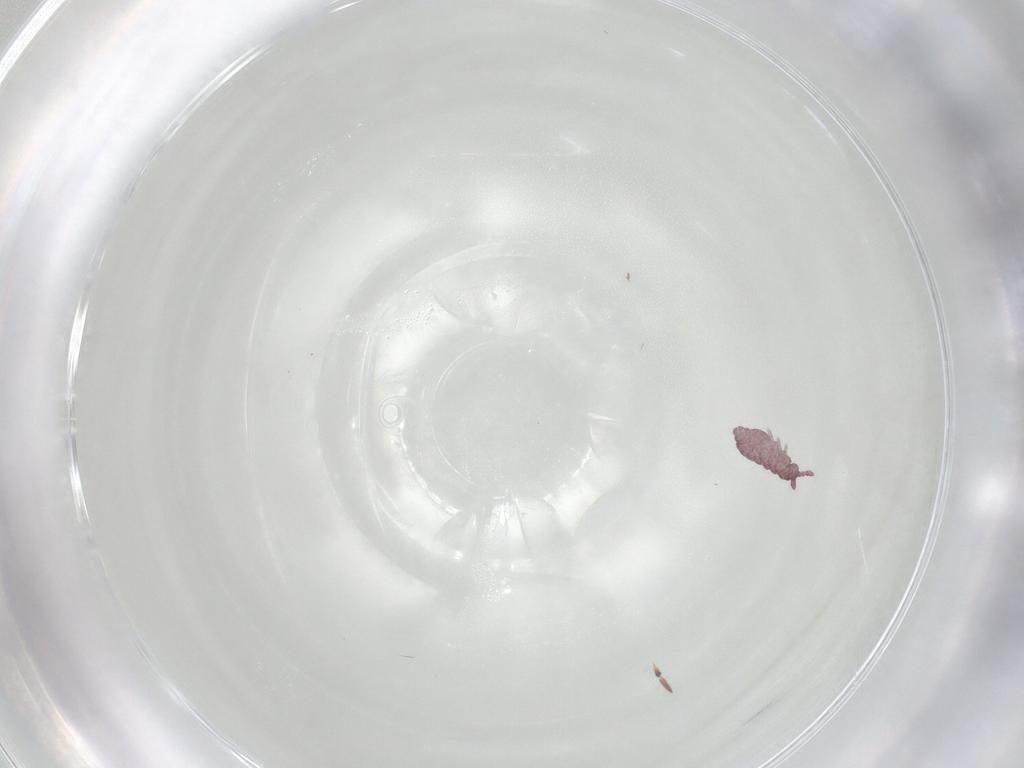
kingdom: Animalia
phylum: Arthropoda
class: Collembola
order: Poduromorpha
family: Hypogastruridae
